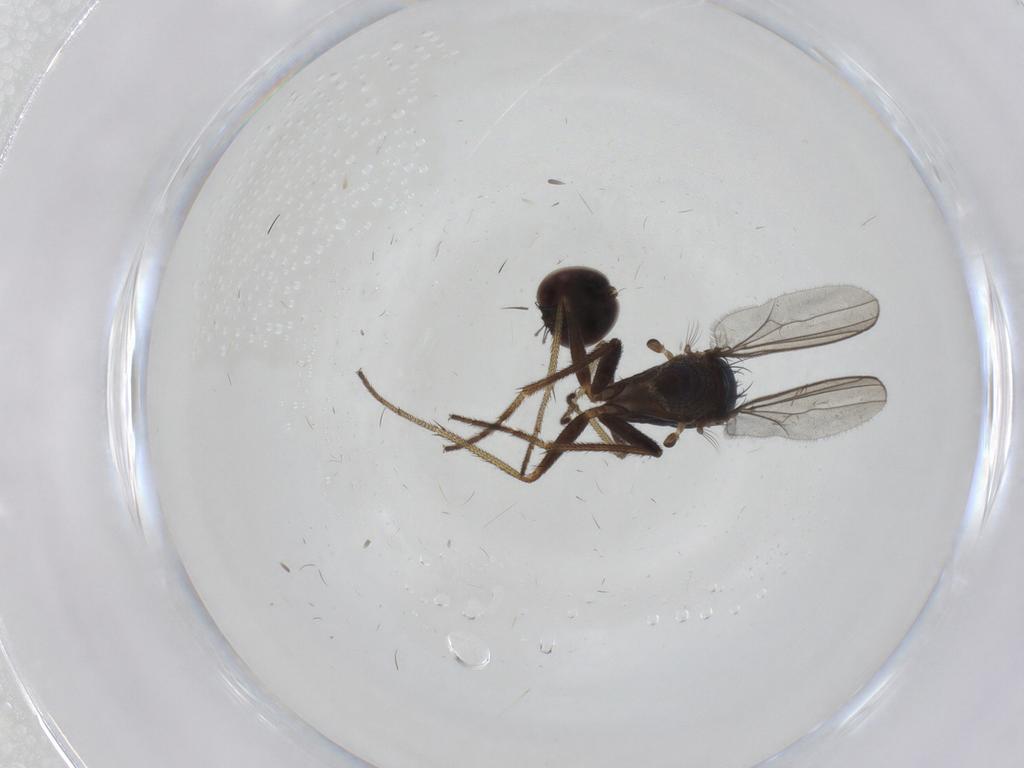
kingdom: Animalia
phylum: Arthropoda
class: Insecta
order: Diptera
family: Dolichopodidae
